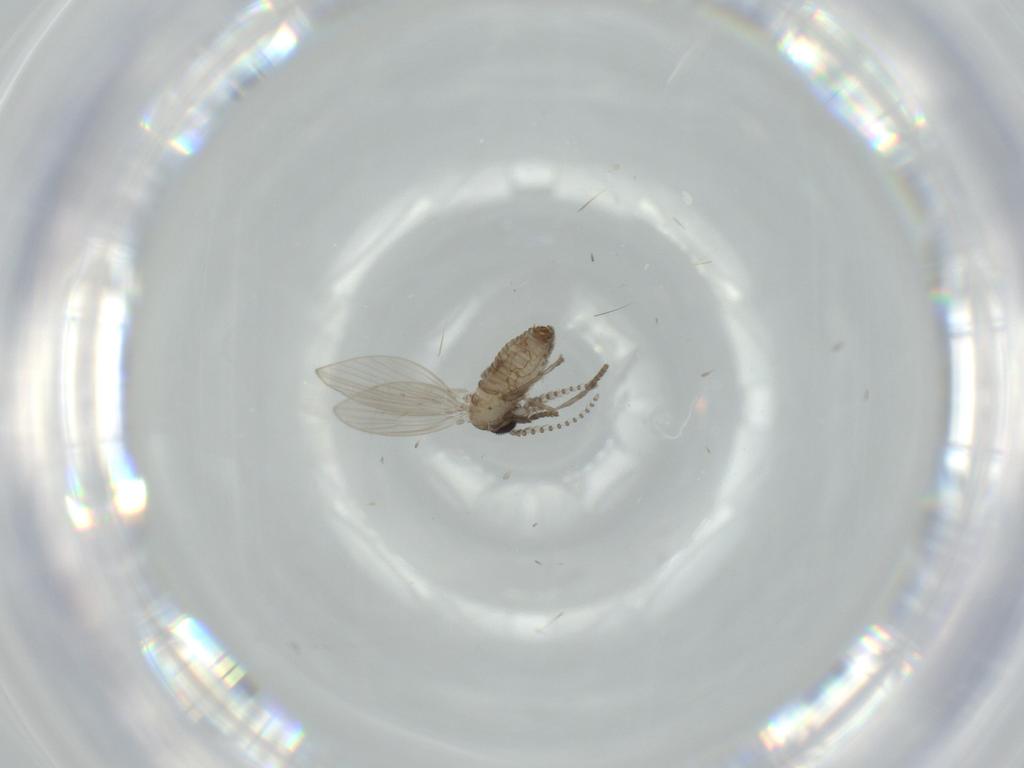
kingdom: Animalia
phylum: Arthropoda
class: Insecta
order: Diptera
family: Psychodidae
